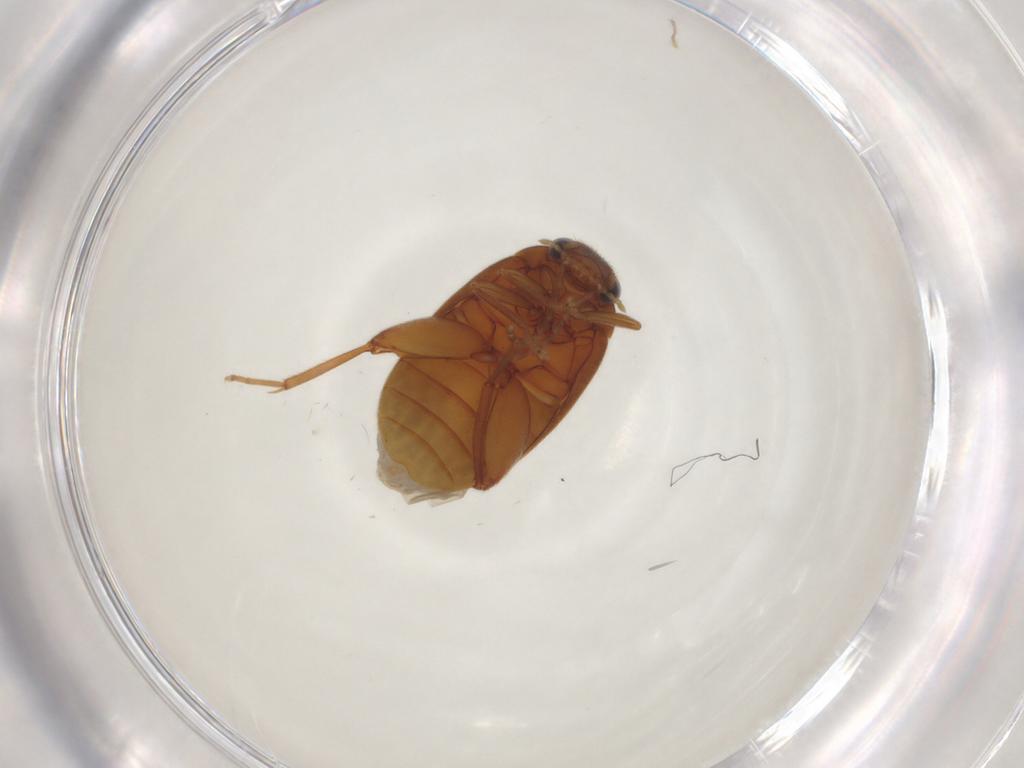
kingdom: Animalia
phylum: Arthropoda
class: Insecta
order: Coleoptera
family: Scirtidae
